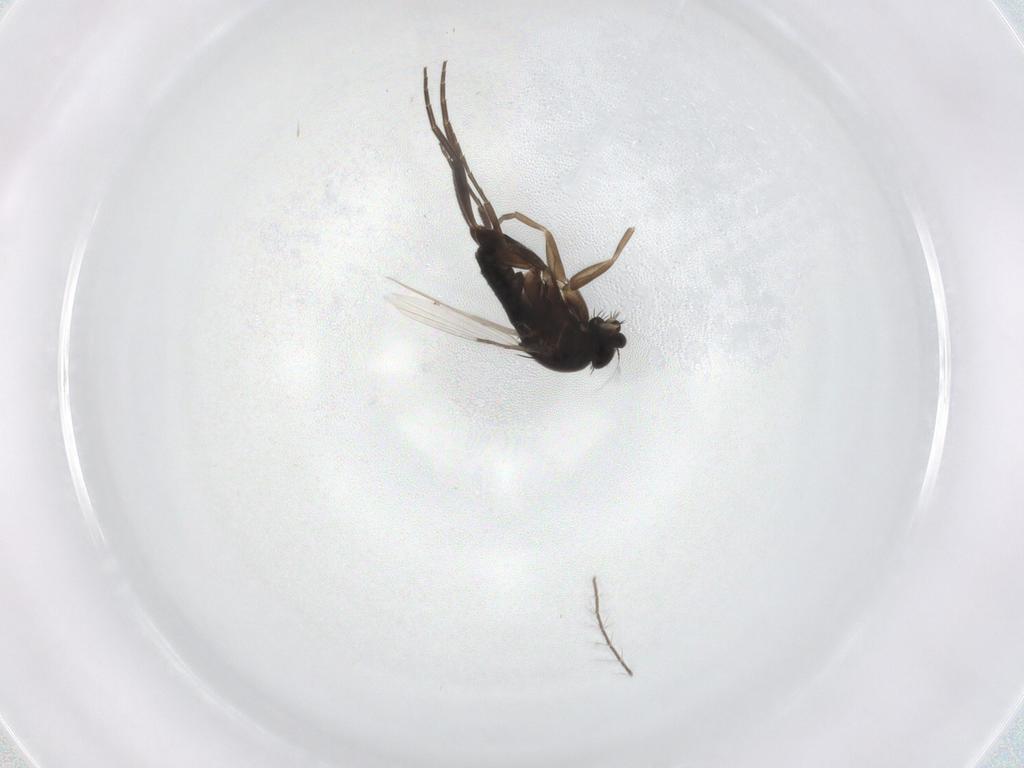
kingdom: Animalia
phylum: Arthropoda
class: Insecta
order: Diptera
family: Phoridae
